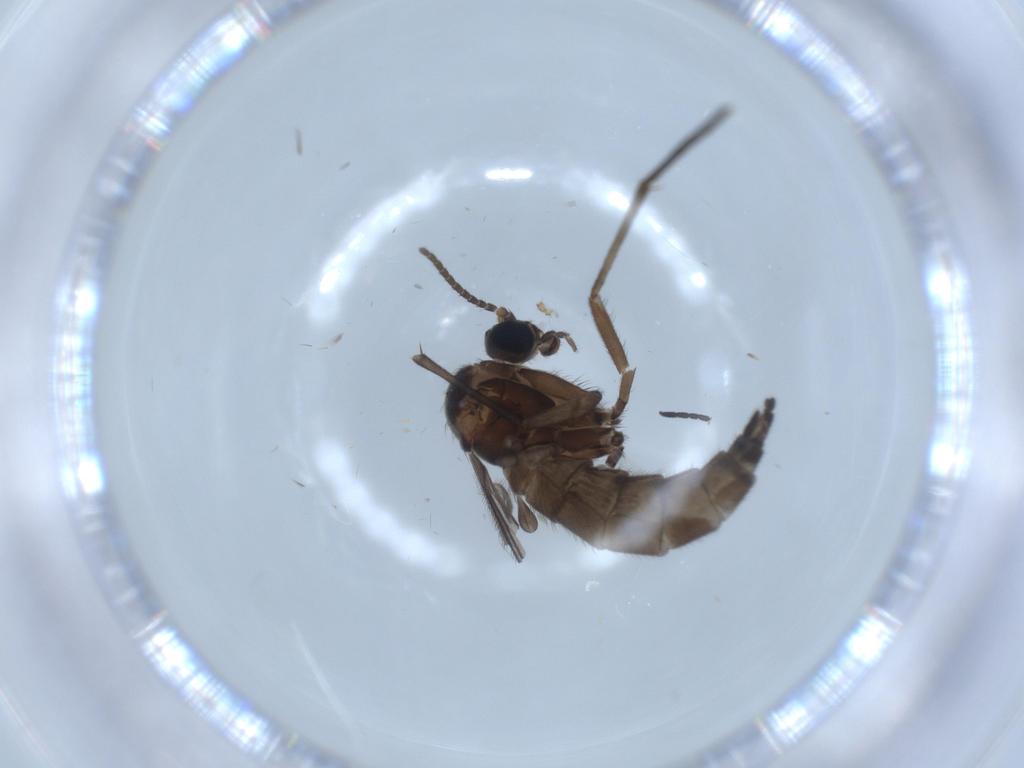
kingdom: Animalia
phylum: Arthropoda
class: Insecta
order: Diptera
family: Sciaridae
